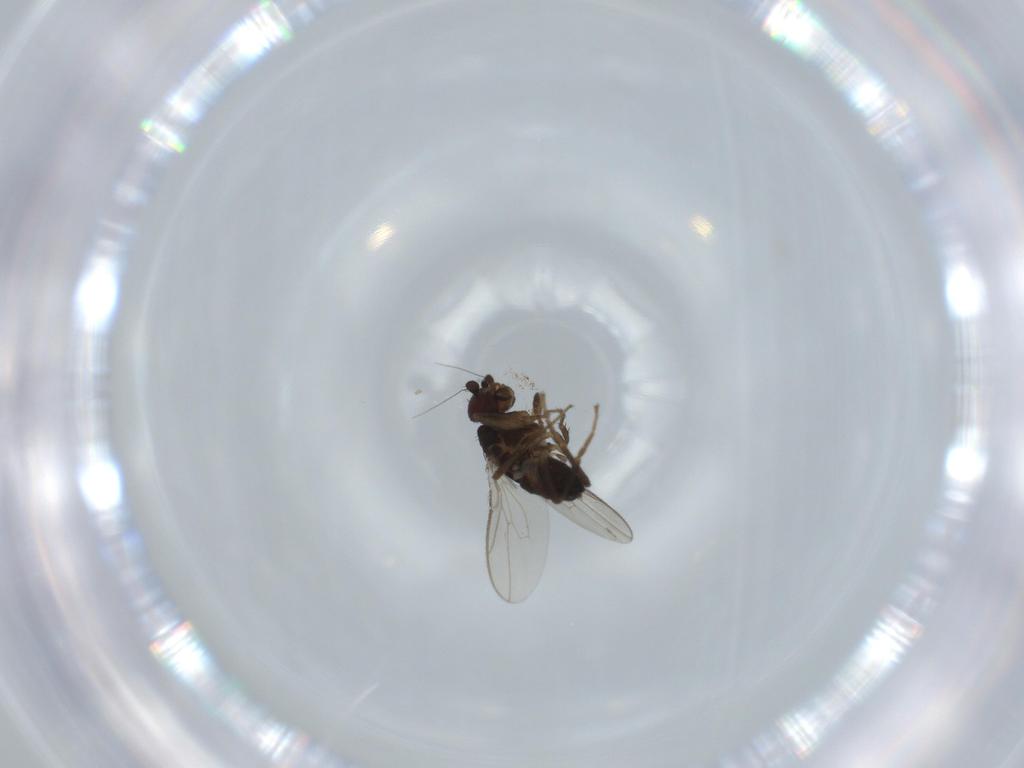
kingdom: Animalia
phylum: Arthropoda
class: Insecta
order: Diptera
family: Sphaeroceridae
